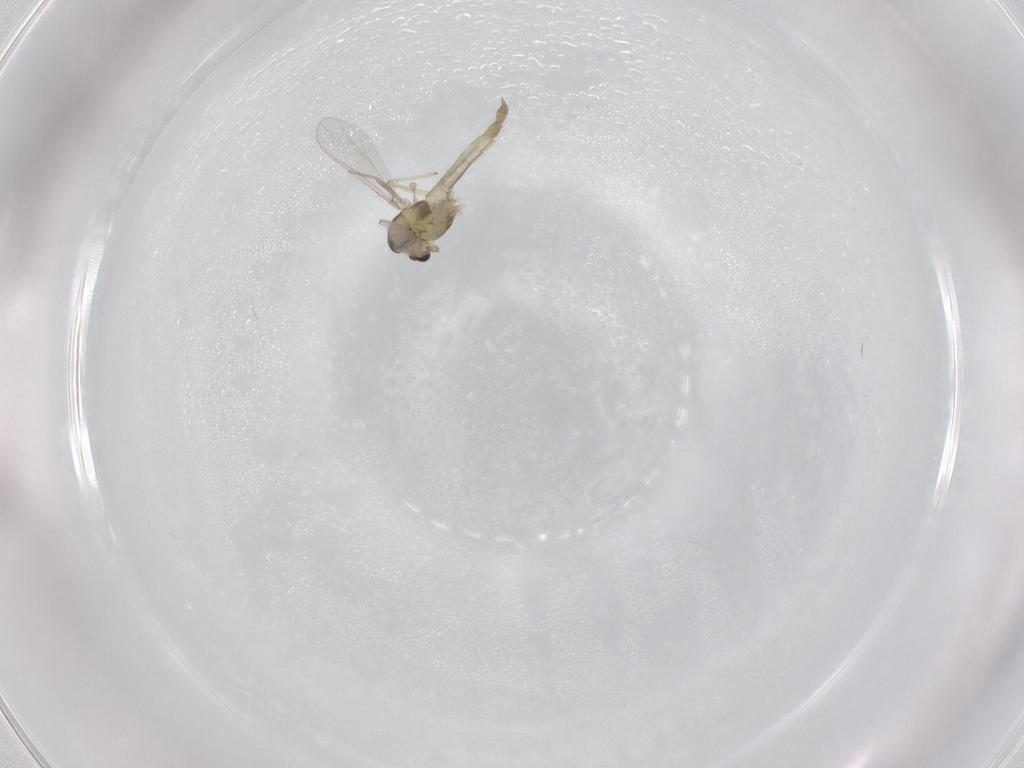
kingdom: Animalia
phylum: Arthropoda
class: Insecta
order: Diptera
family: Chironomidae
